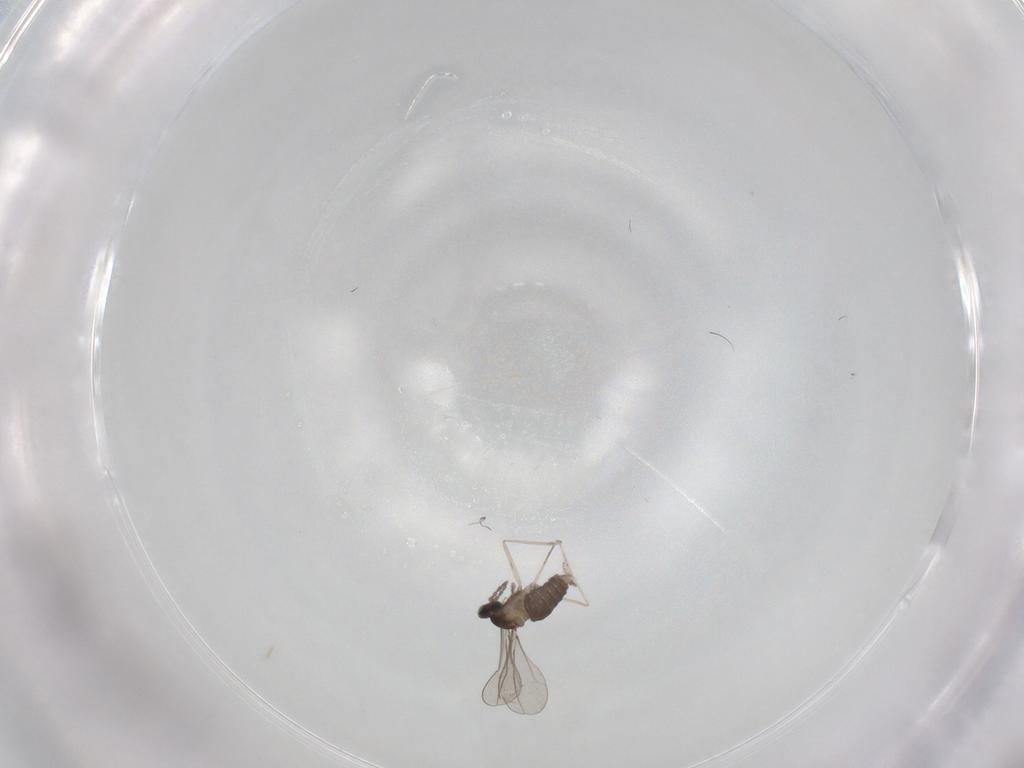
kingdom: Animalia
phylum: Arthropoda
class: Insecta
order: Diptera
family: Cecidomyiidae
